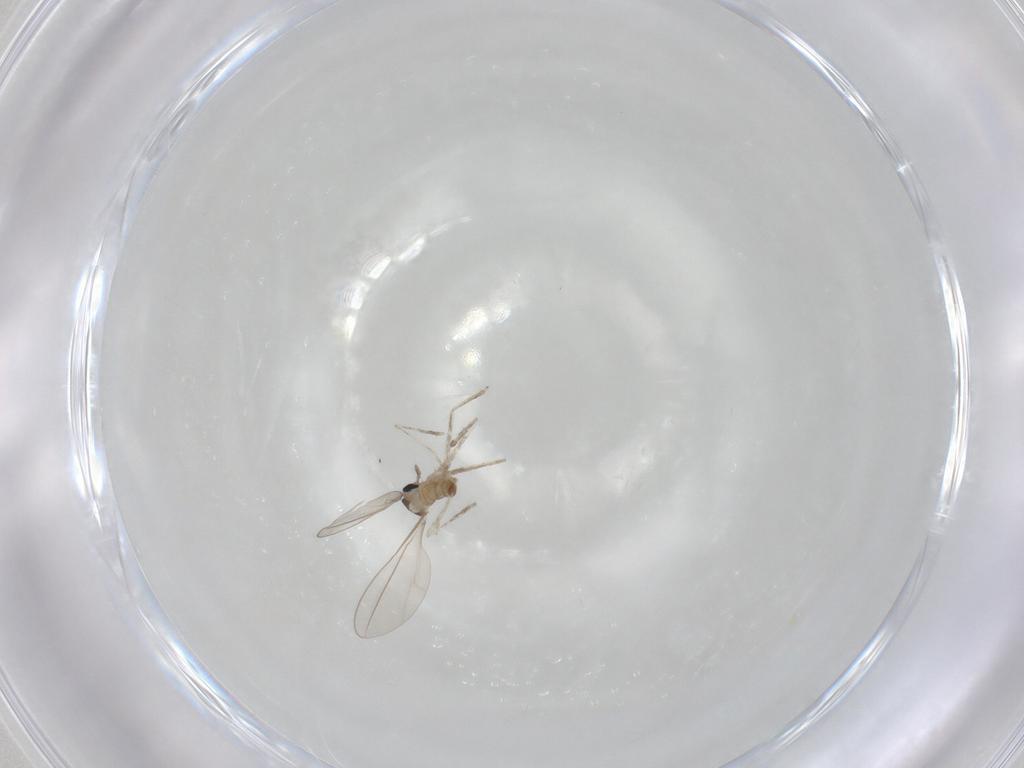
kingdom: Animalia
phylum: Arthropoda
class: Insecta
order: Diptera
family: Cecidomyiidae
